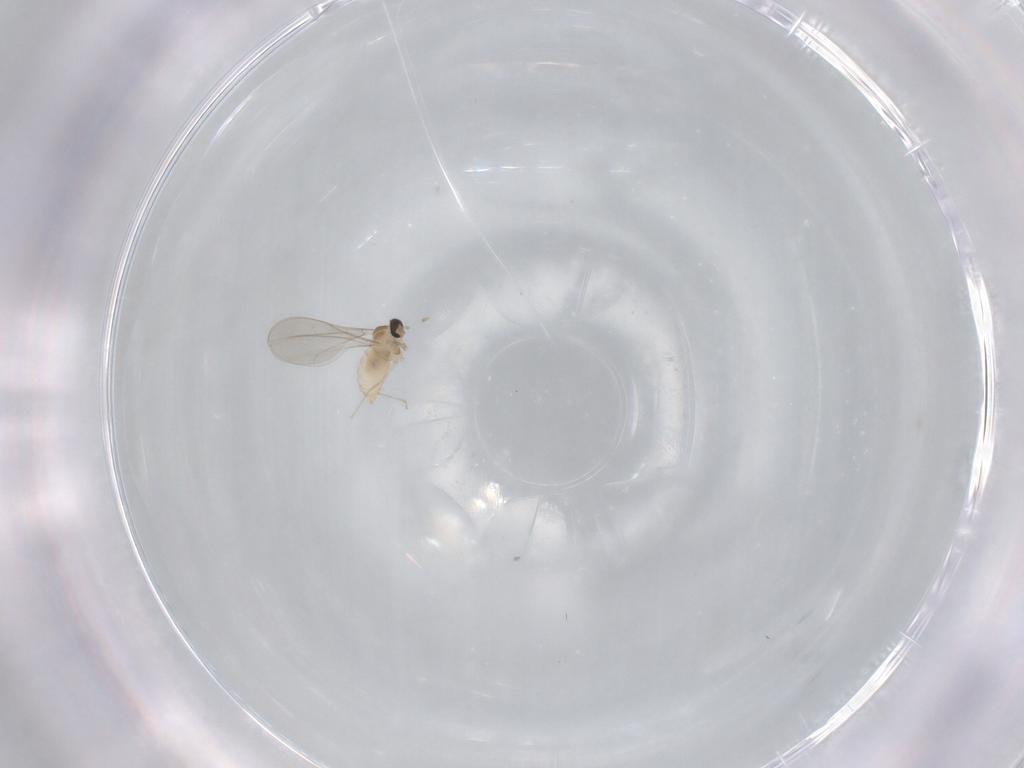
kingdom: Animalia
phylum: Arthropoda
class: Insecta
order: Diptera
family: Cecidomyiidae
